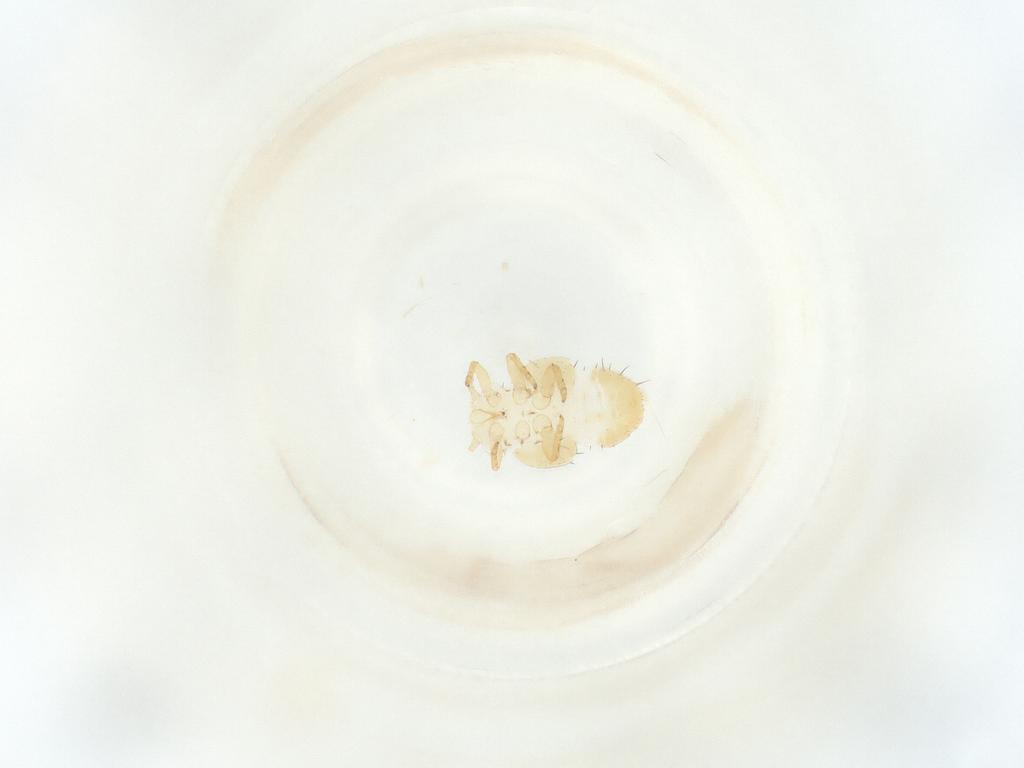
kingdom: Animalia
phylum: Arthropoda
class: Insecta
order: Hemiptera
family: Psyllidae
